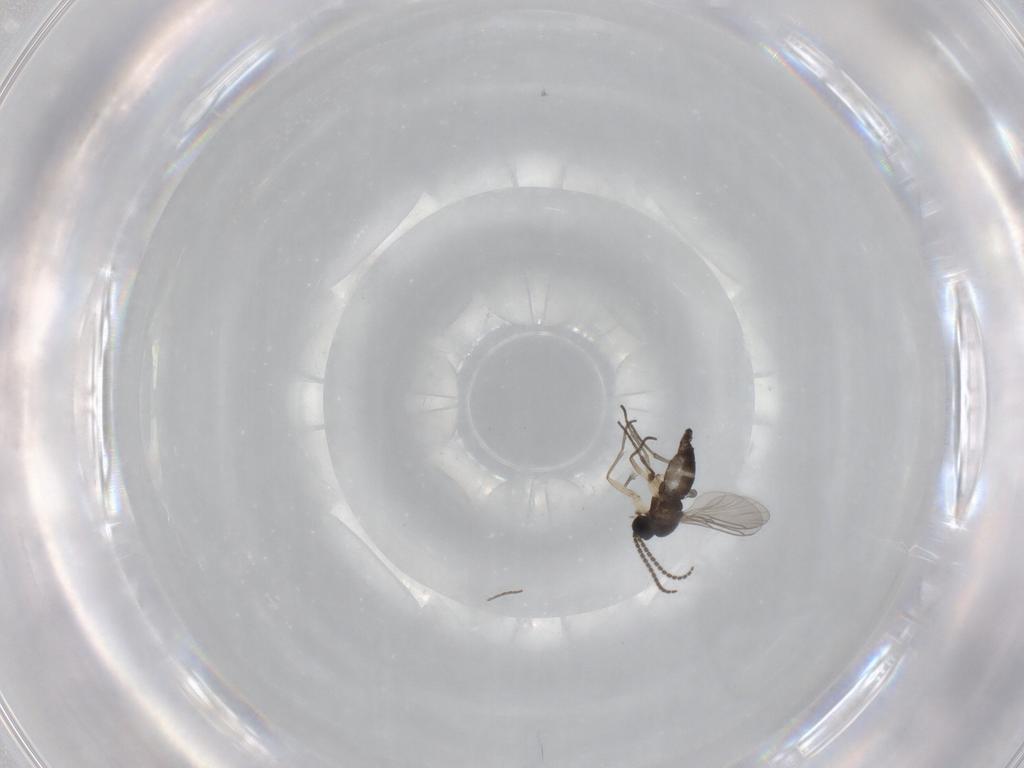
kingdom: Animalia
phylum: Arthropoda
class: Insecta
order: Diptera
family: Sciaridae
